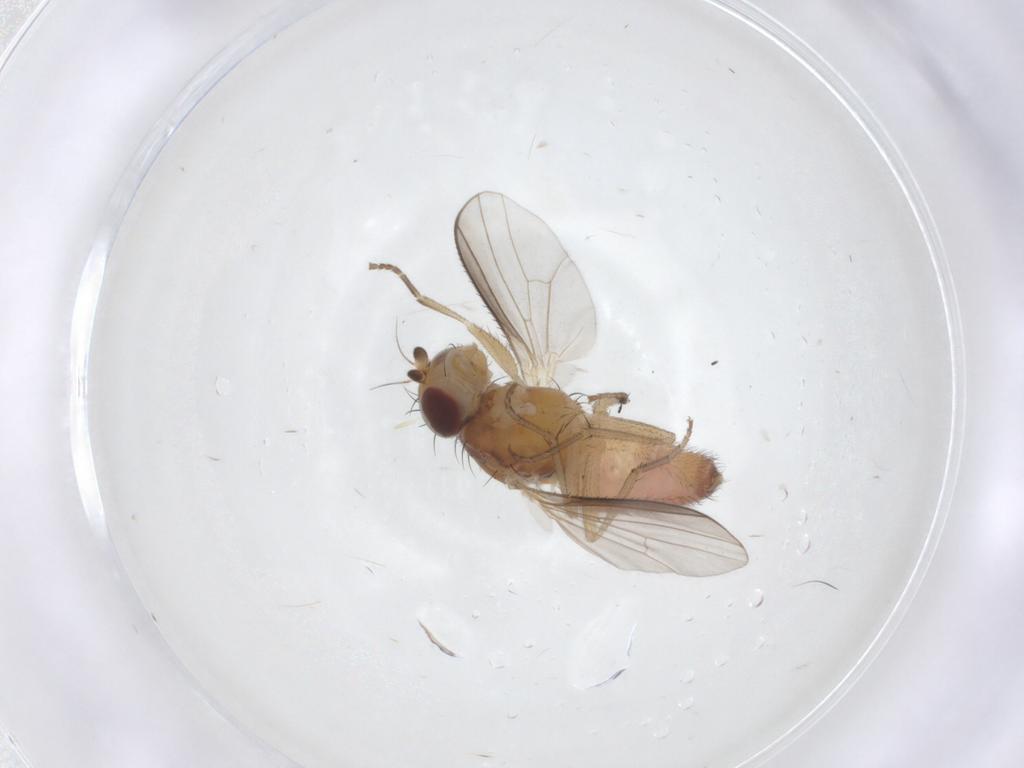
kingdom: Animalia
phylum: Arthropoda
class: Insecta
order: Diptera
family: Heleomyzidae
